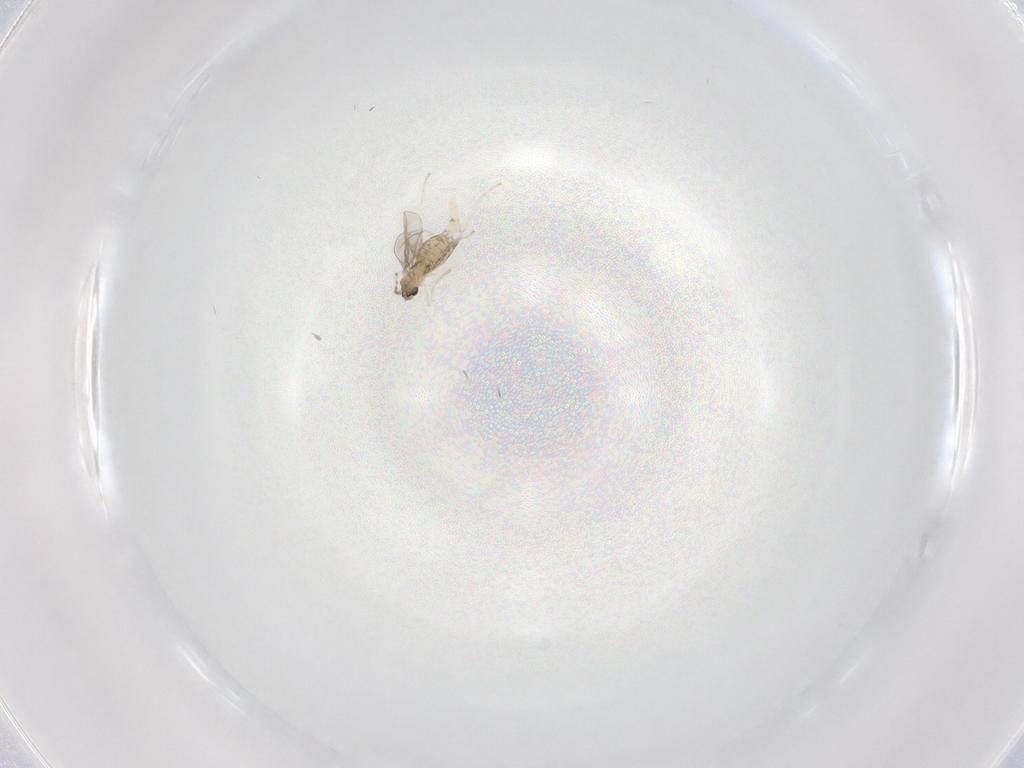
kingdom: Animalia
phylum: Arthropoda
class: Insecta
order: Diptera
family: Cecidomyiidae
